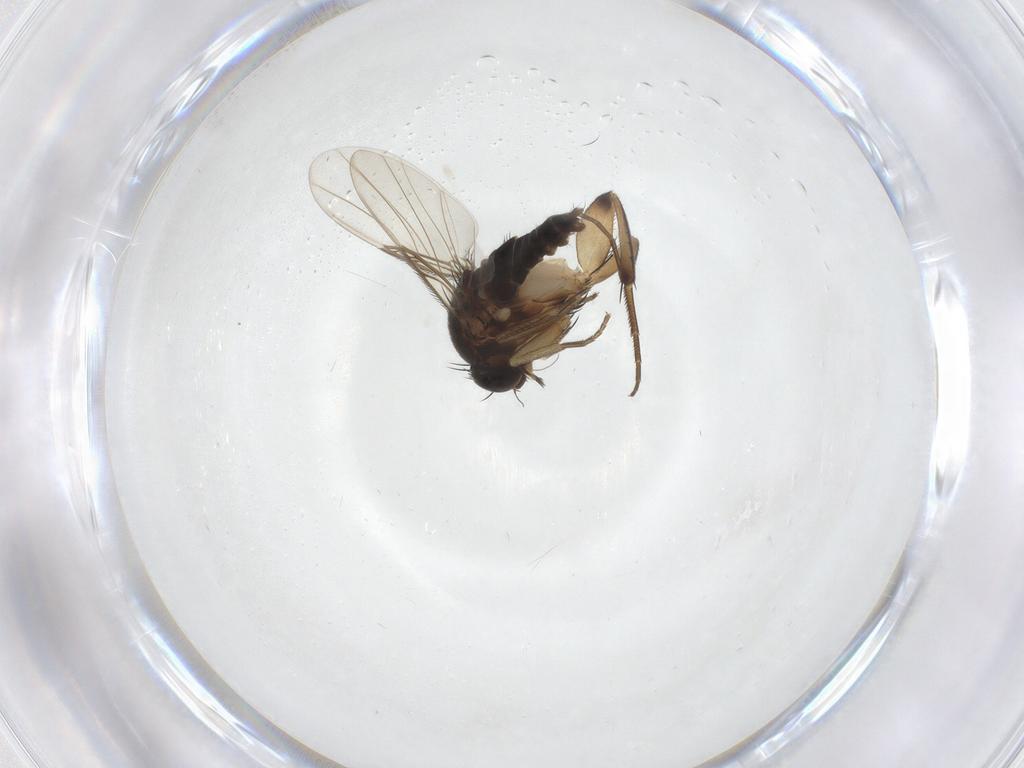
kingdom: Animalia
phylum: Arthropoda
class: Insecta
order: Diptera
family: Phoridae
